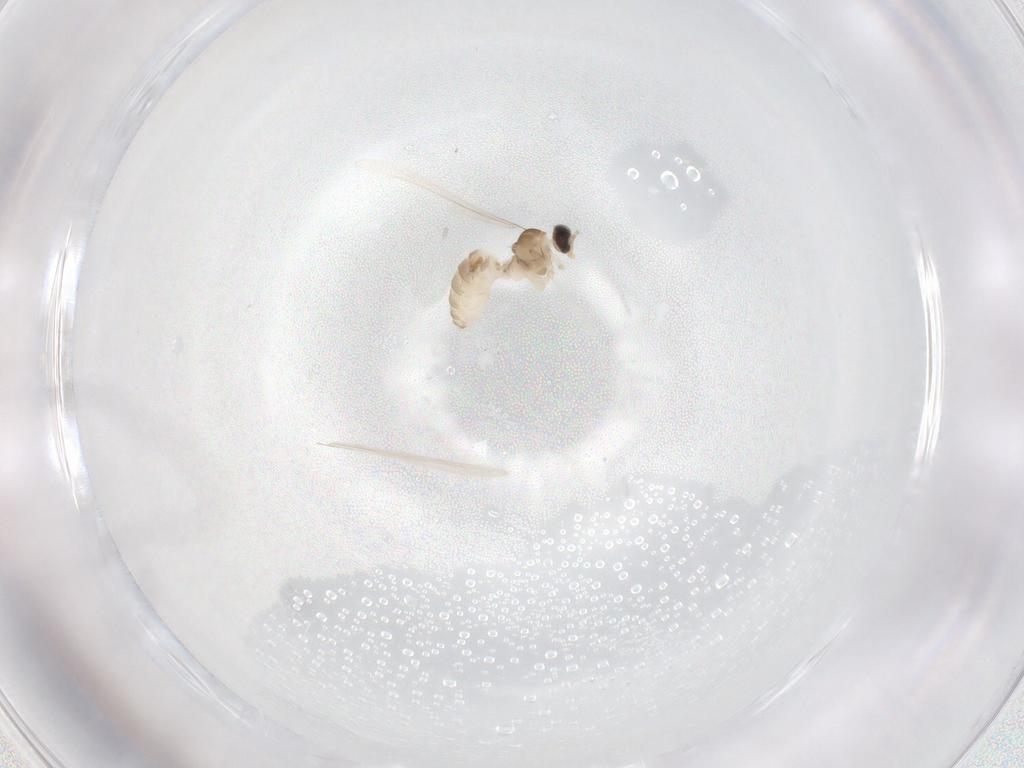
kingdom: Animalia
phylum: Arthropoda
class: Insecta
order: Diptera
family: Cecidomyiidae
